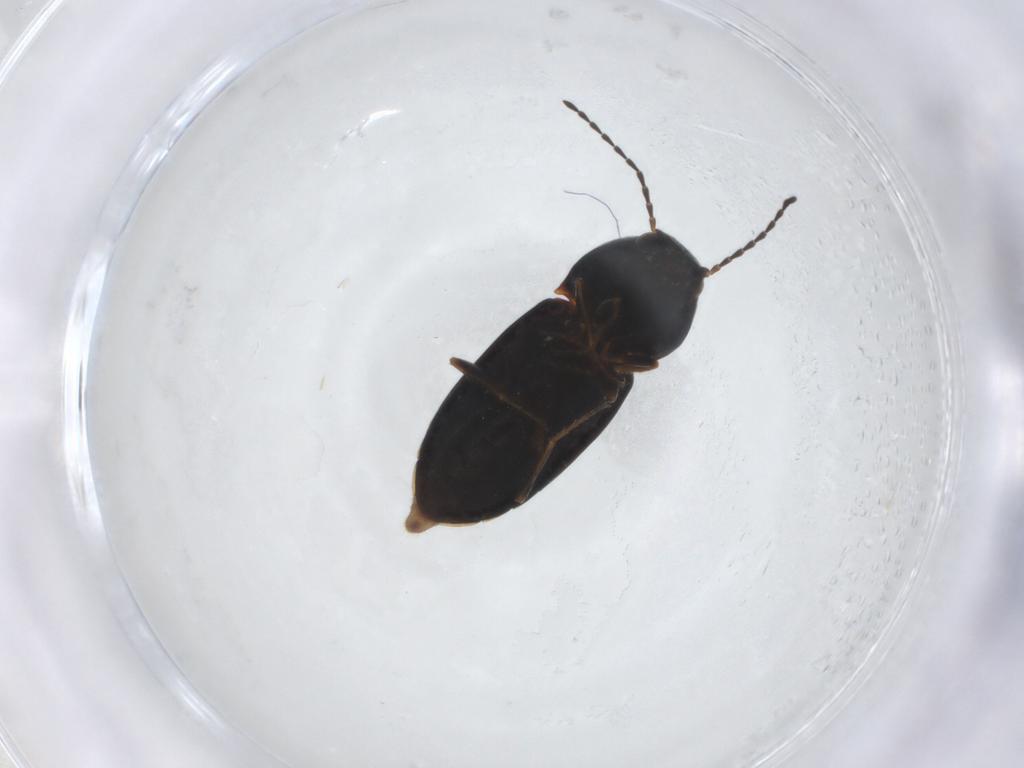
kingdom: Animalia
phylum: Arthropoda
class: Insecta
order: Coleoptera
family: Elateridae
